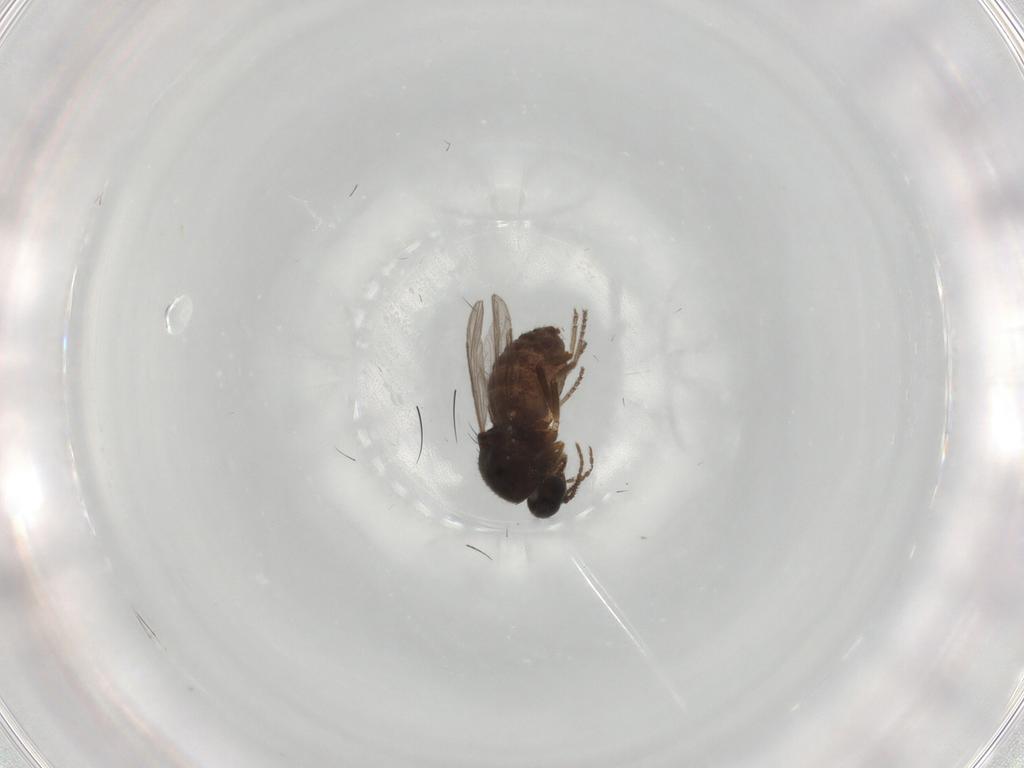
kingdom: Animalia
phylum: Arthropoda
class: Insecta
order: Diptera
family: Ceratopogonidae
